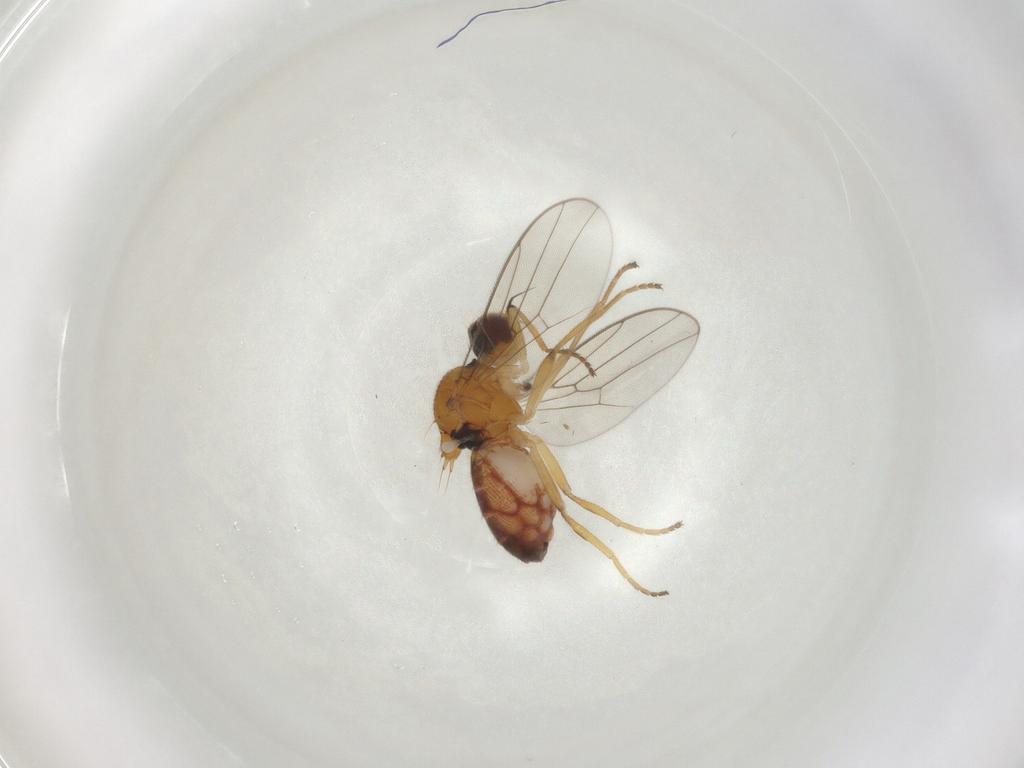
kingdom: Animalia
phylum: Arthropoda
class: Insecta
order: Diptera
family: Chloropidae
